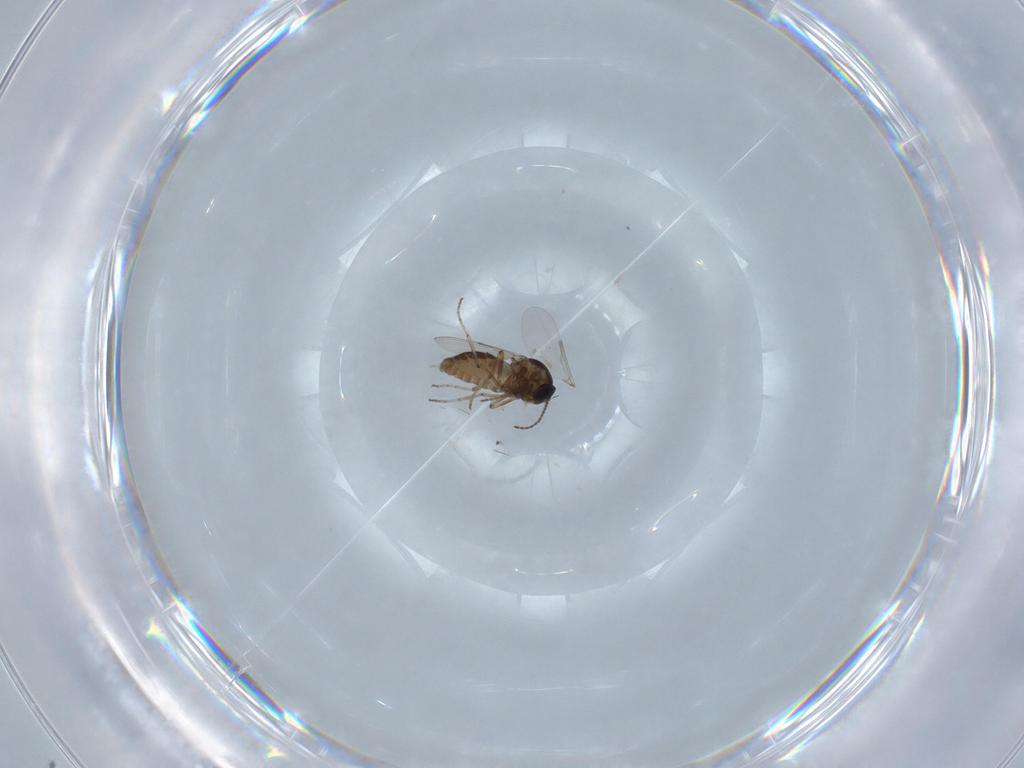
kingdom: Animalia
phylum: Arthropoda
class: Insecta
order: Diptera
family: Ceratopogonidae
